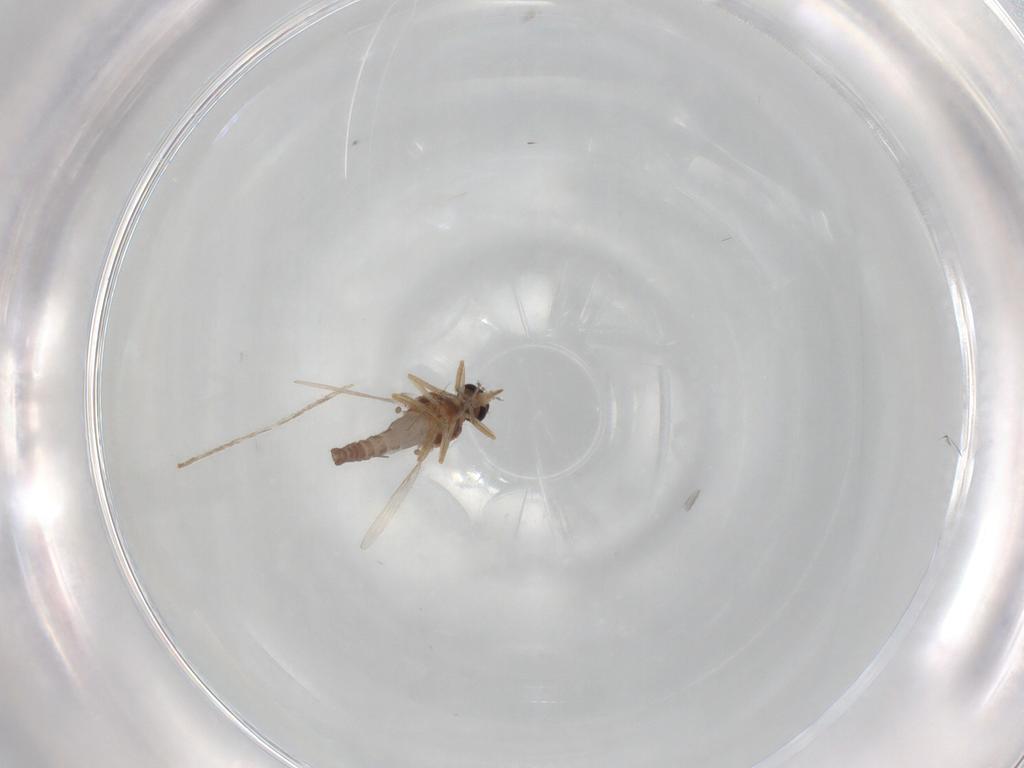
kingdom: Animalia
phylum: Arthropoda
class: Insecta
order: Diptera
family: Ceratopogonidae
